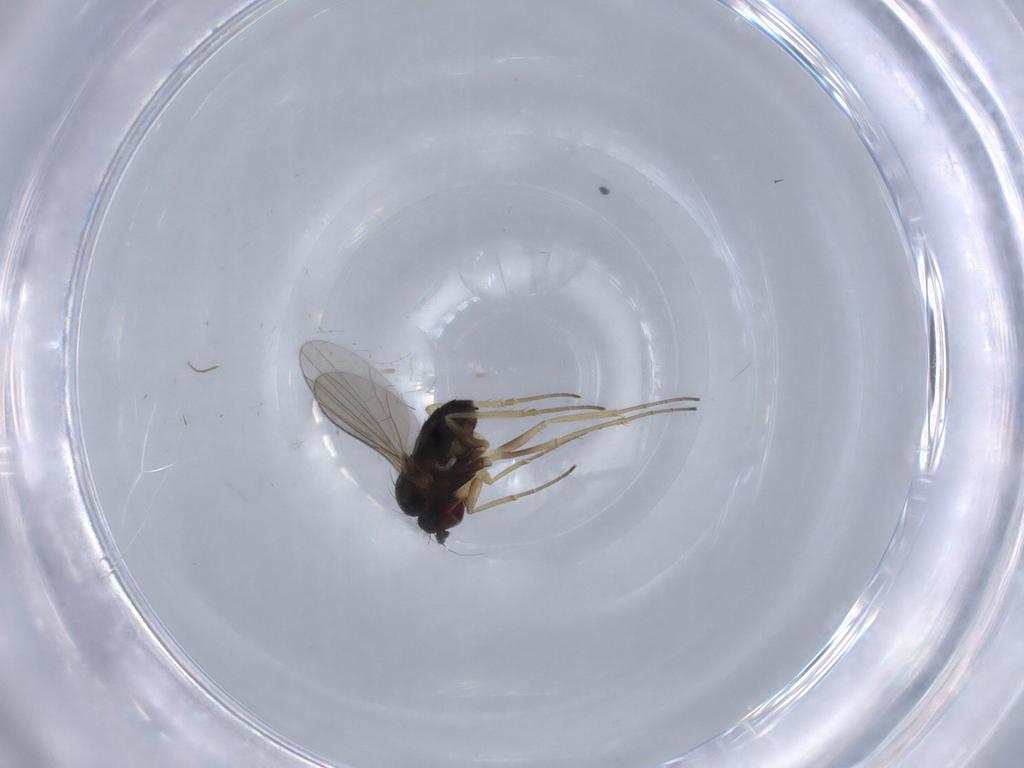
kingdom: Animalia
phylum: Arthropoda
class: Insecta
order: Diptera
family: Dolichopodidae
